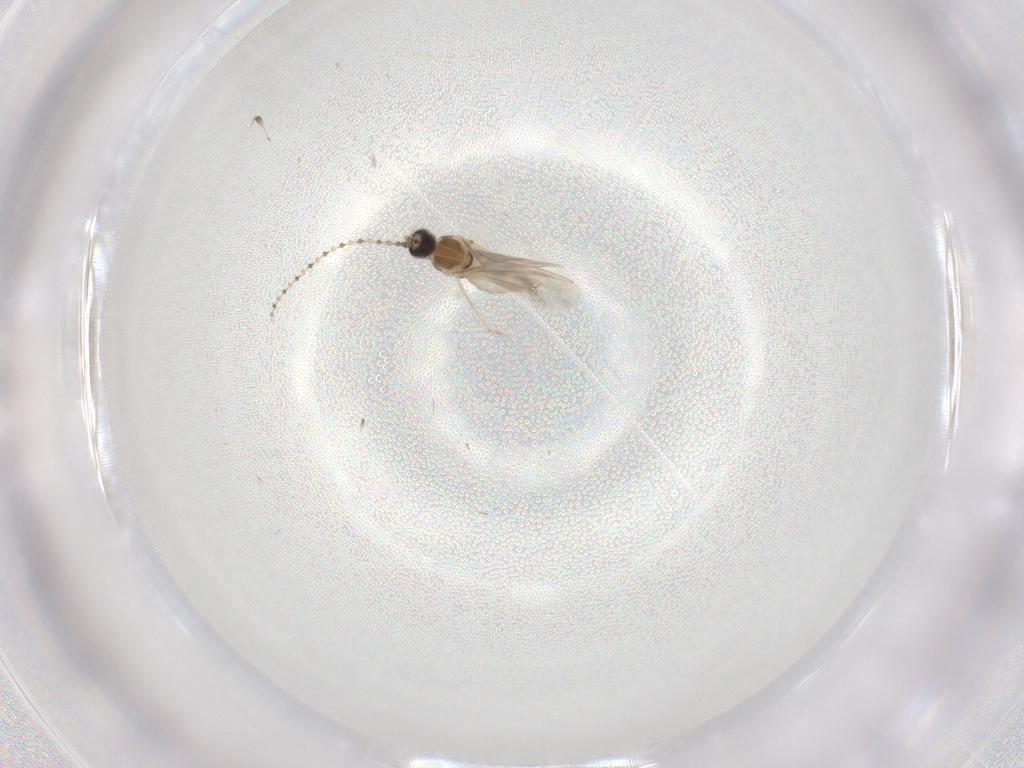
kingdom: Animalia
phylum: Arthropoda
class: Insecta
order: Diptera
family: Cecidomyiidae
